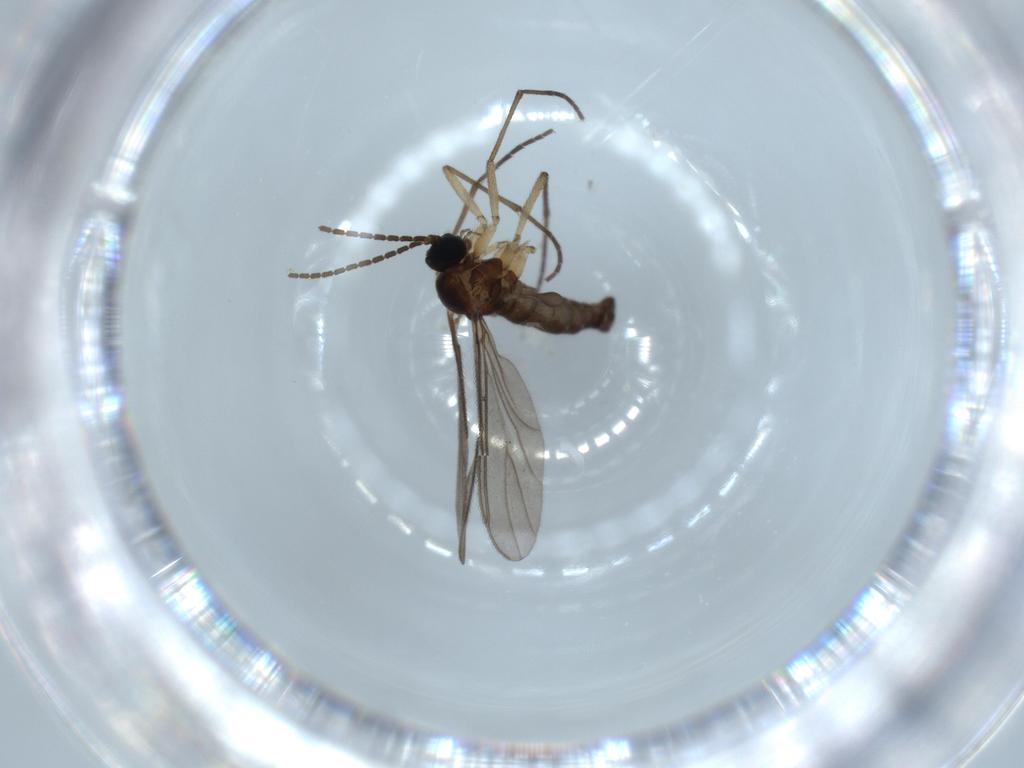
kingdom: Animalia
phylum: Arthropoda
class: Insecta
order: Diptera
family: Sciaridae
